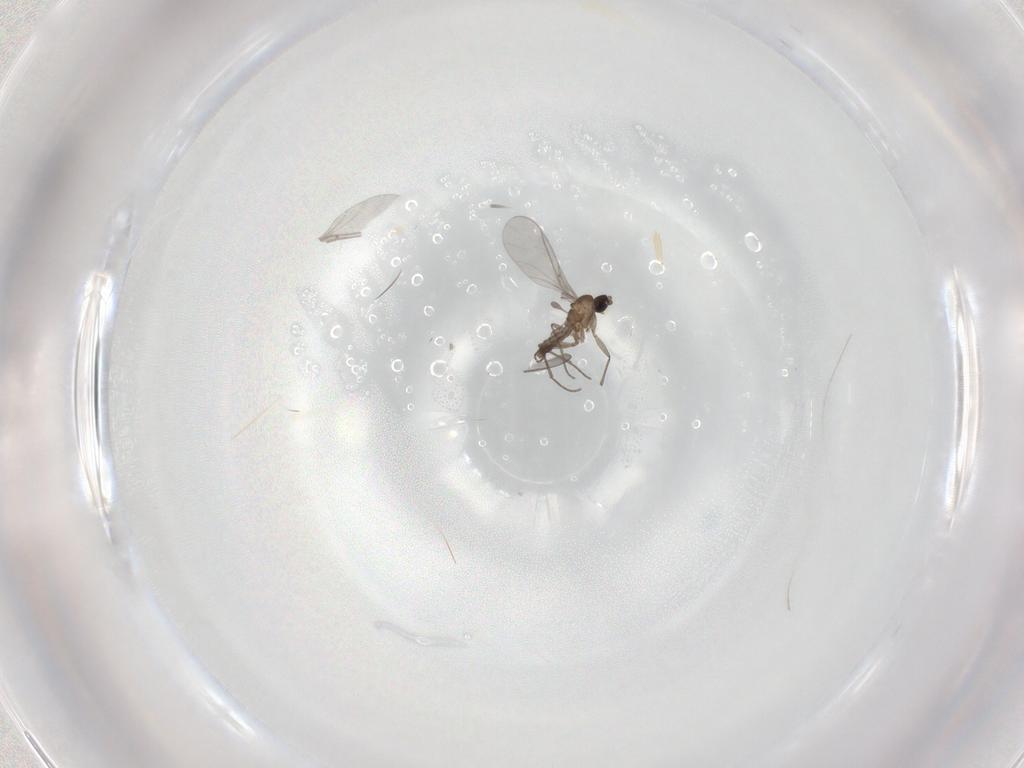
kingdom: Animalia
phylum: Arthropoda
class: Insecta
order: Diptera
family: Sciaridae
